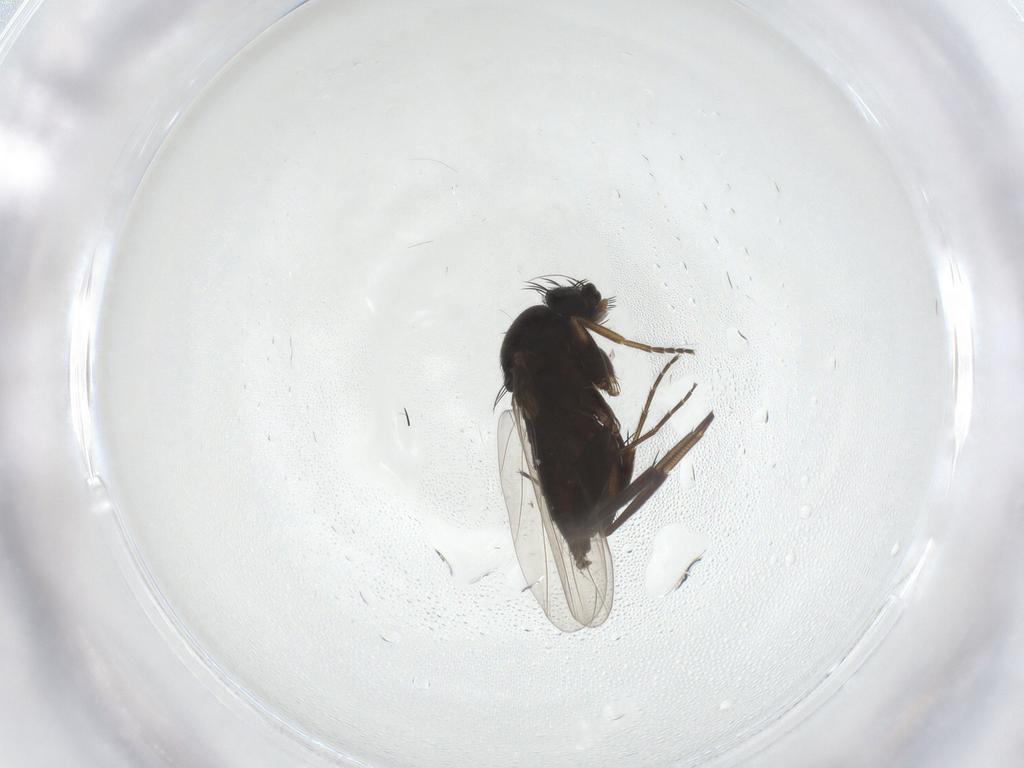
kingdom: Animalia
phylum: Arthropoda
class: Insecta
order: Diptera
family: Phoridae
